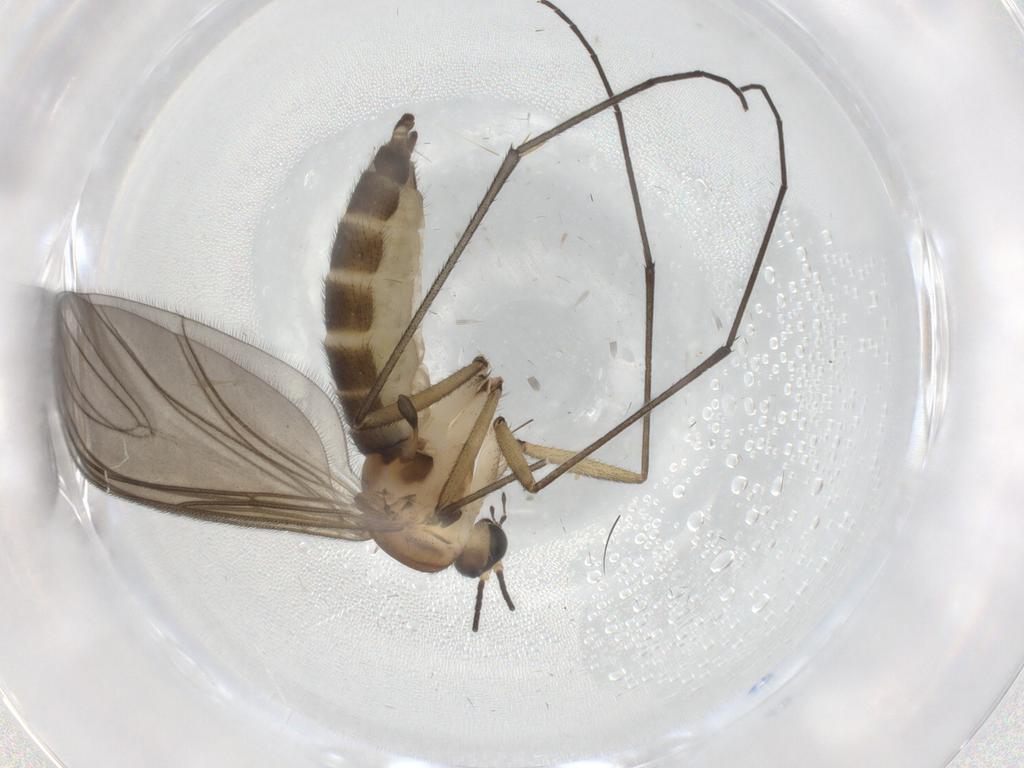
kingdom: Animalia
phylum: Arthropoda
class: Insecta
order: Diptera
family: Sciaridae
